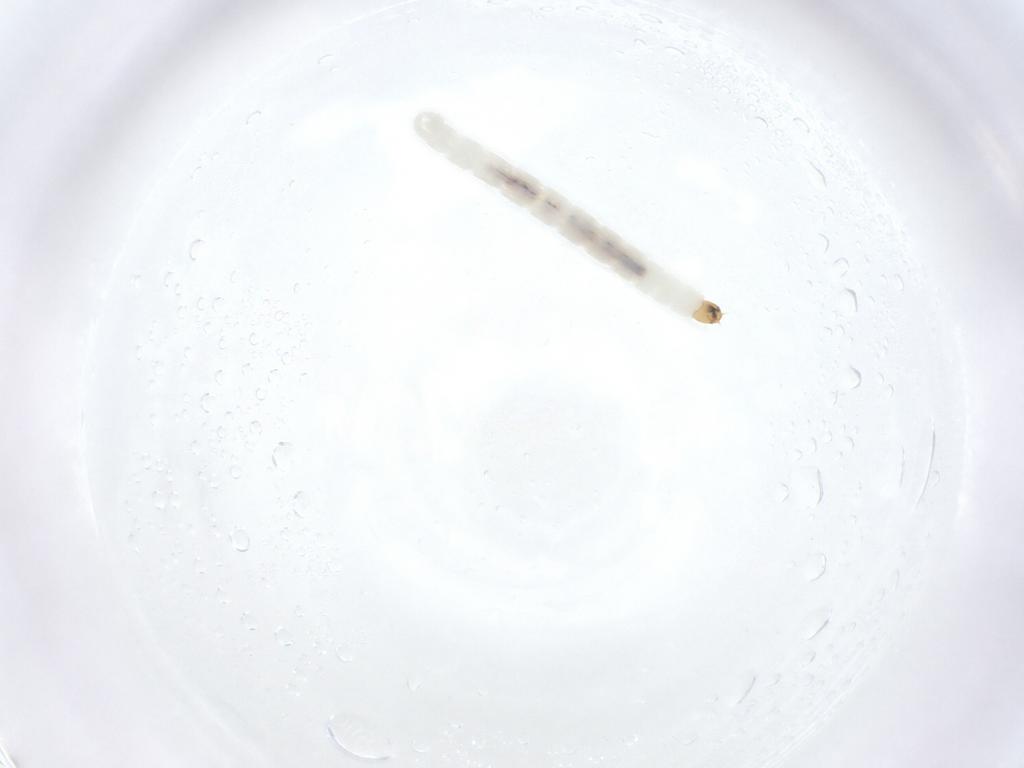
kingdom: Animalia
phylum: Arthropoda
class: Insecta
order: Diptera
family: Chironomidae
